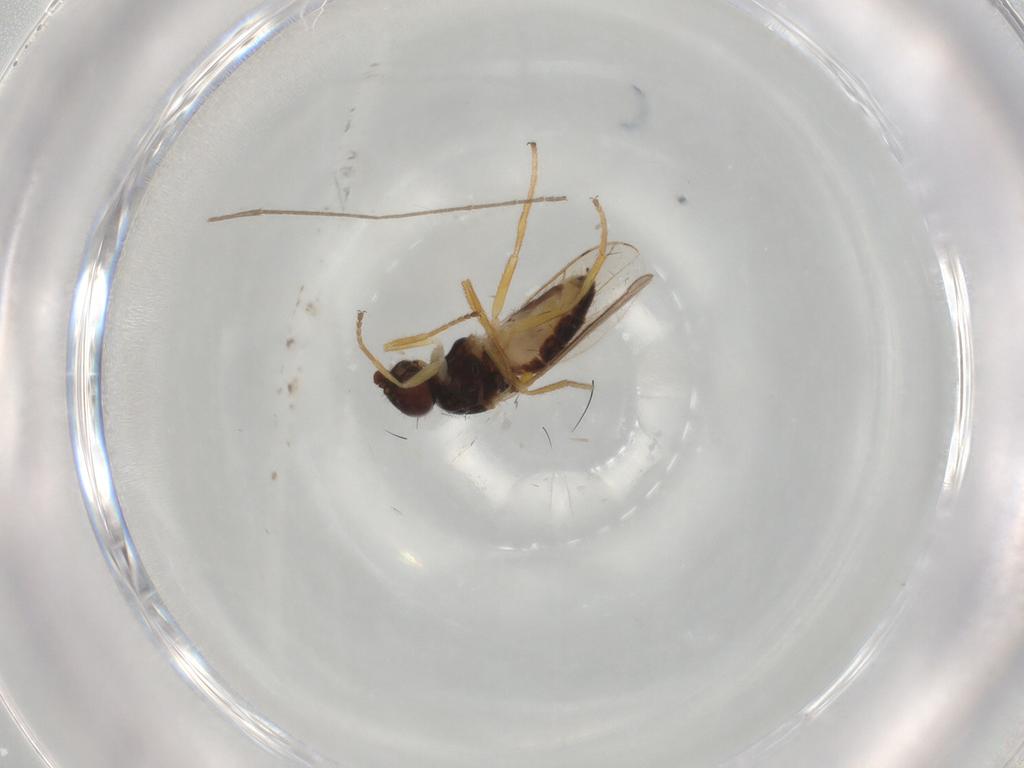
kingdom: Animalia
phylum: Arthropoda
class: Insecta
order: Diptera
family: Chloropidae
